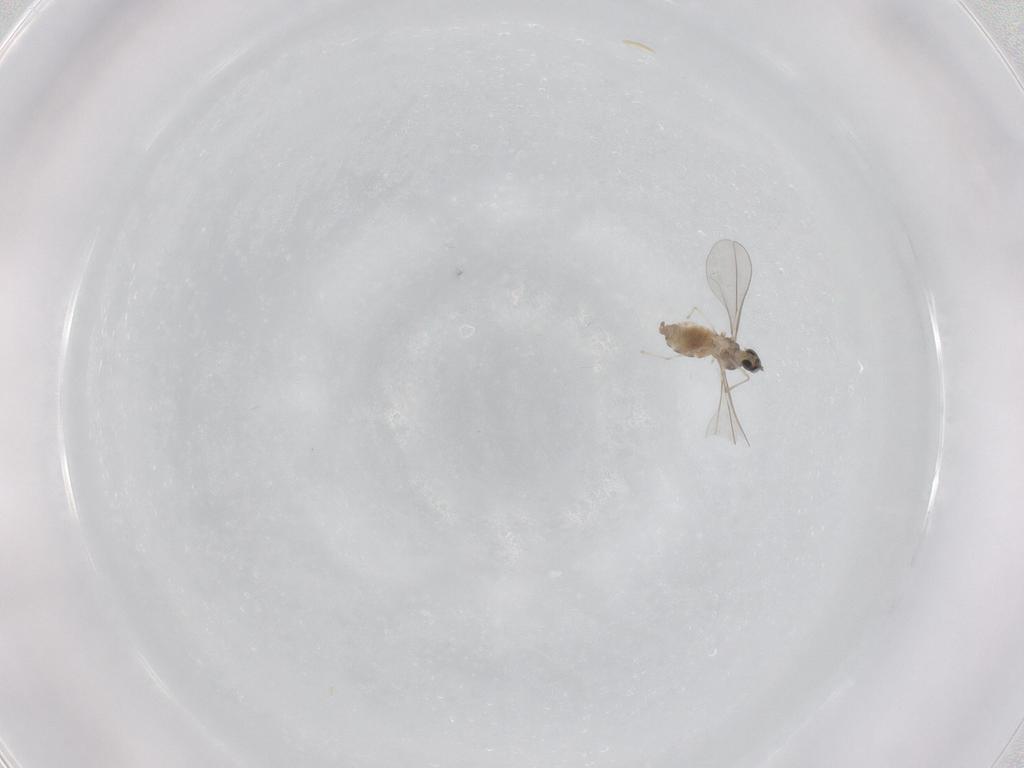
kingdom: Animalia
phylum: Arthropoda
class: Insecta
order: Diptera
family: Cecidomyiidae
